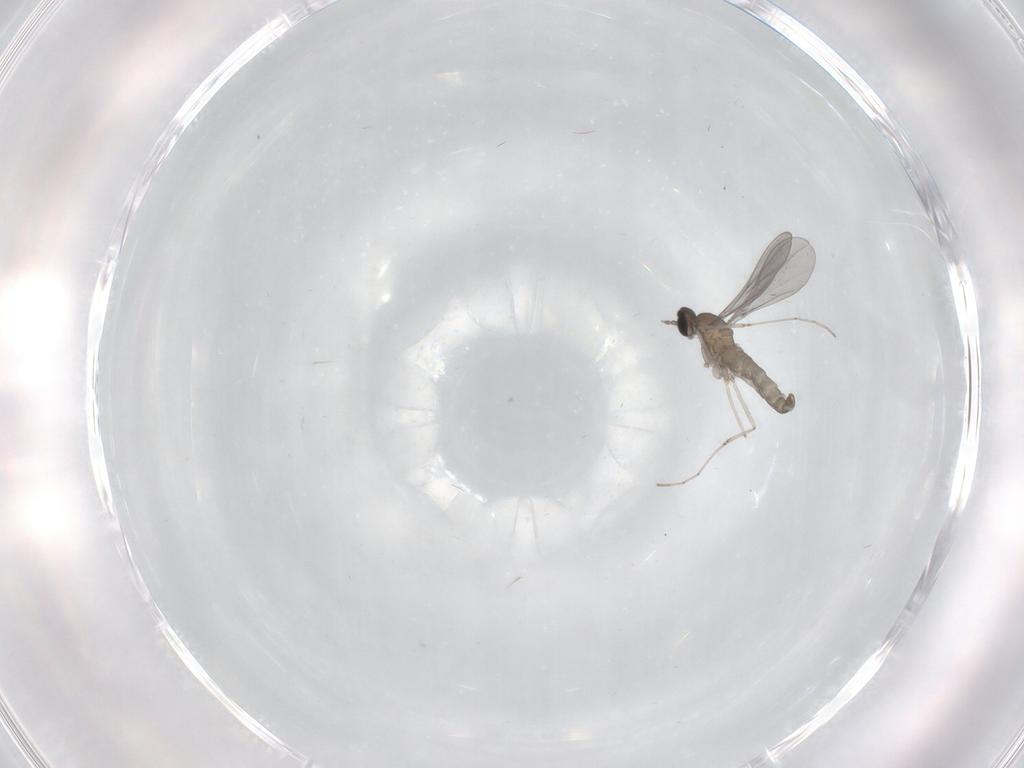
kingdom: Animalia
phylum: Arthropoda
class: Insecta
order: Diptera
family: Cecidomyiidae
